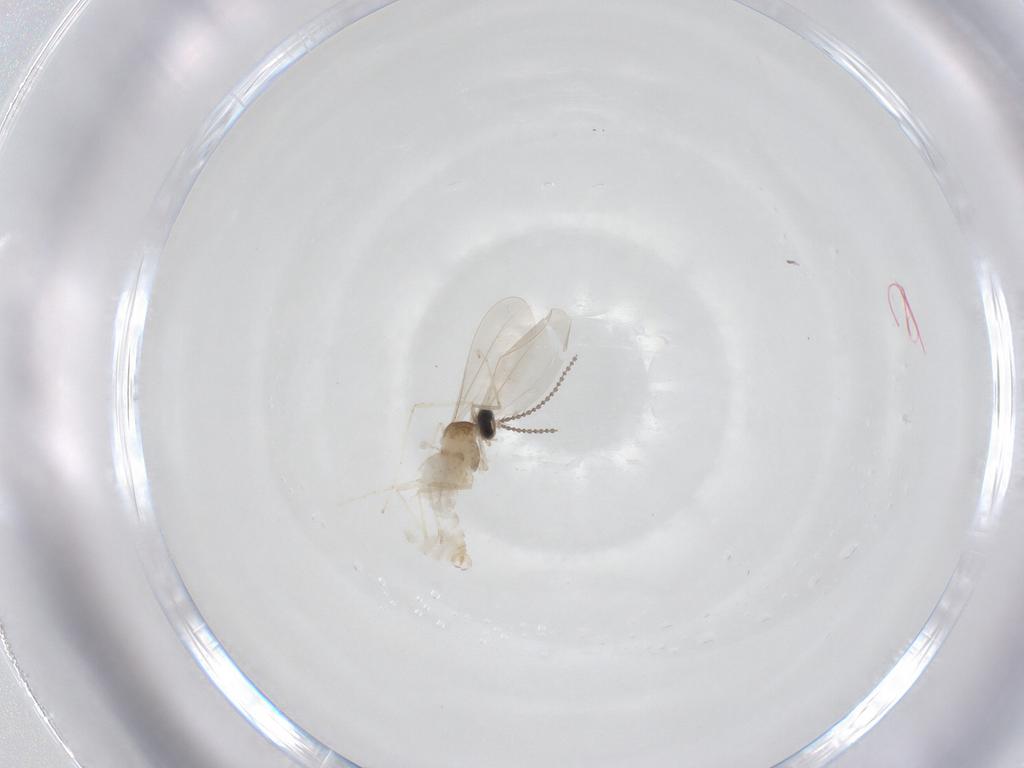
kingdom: Animalia
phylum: Arthropoda
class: Insecta
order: Diptera
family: Cecidomyiidae
